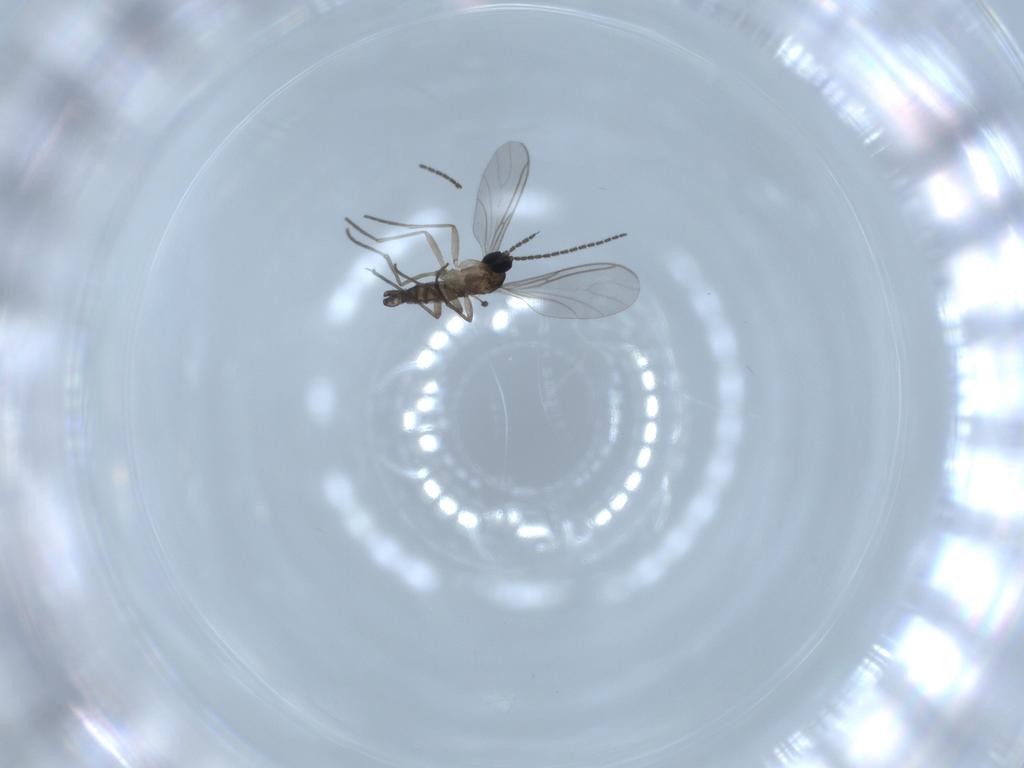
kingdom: Animalia
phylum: Arthropoda
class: Insecta
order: Diptera
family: Sciaridae
